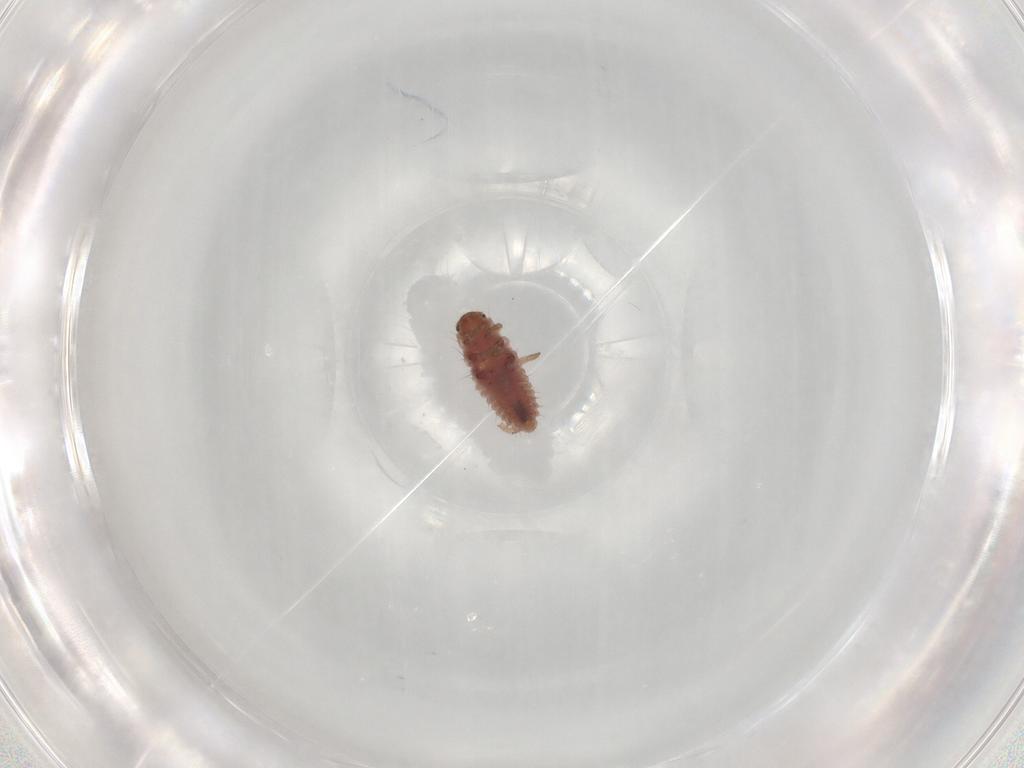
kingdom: Animalia
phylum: Arthropoda
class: Insecta
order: Coleoptera
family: Coccinellidae
